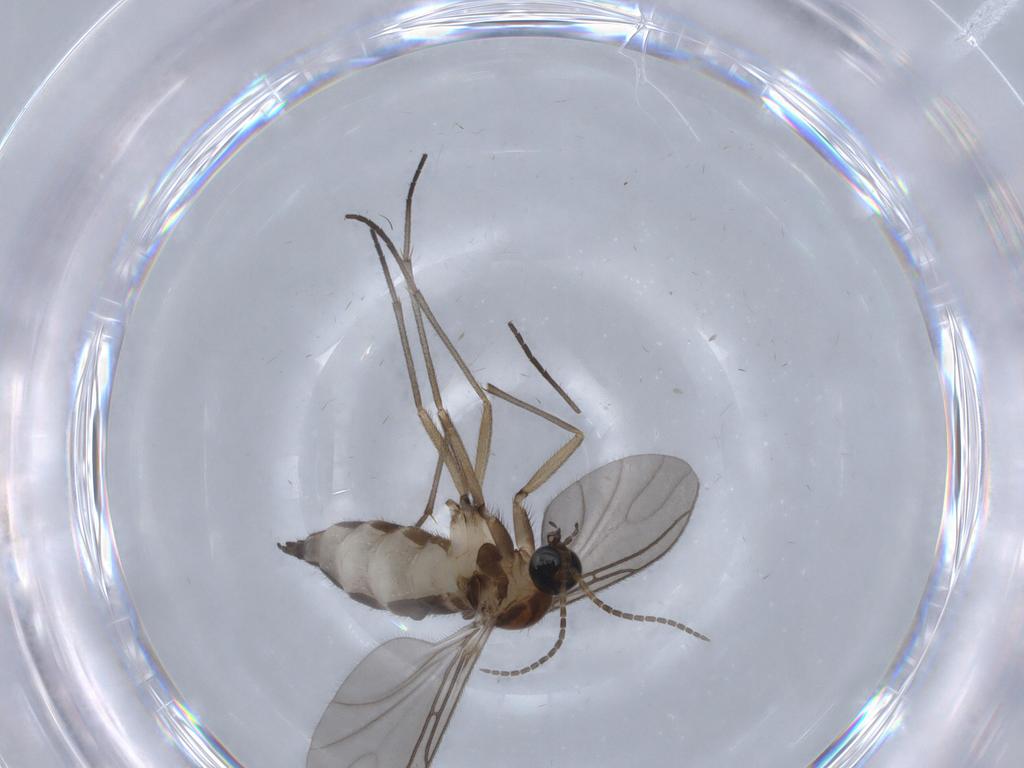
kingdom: Animalia
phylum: Arthropoda
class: Insecta
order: Diptera
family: Sciaridae
